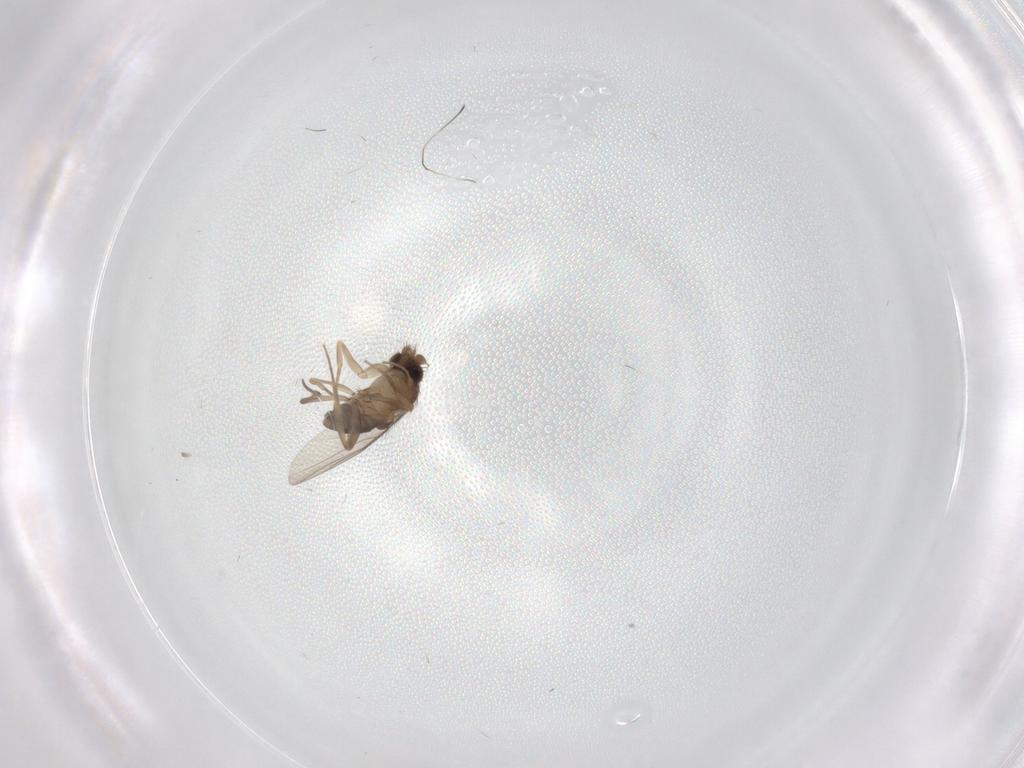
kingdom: Animalia
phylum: Arthropoda
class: Insecta
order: Diptera
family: Phoridae
